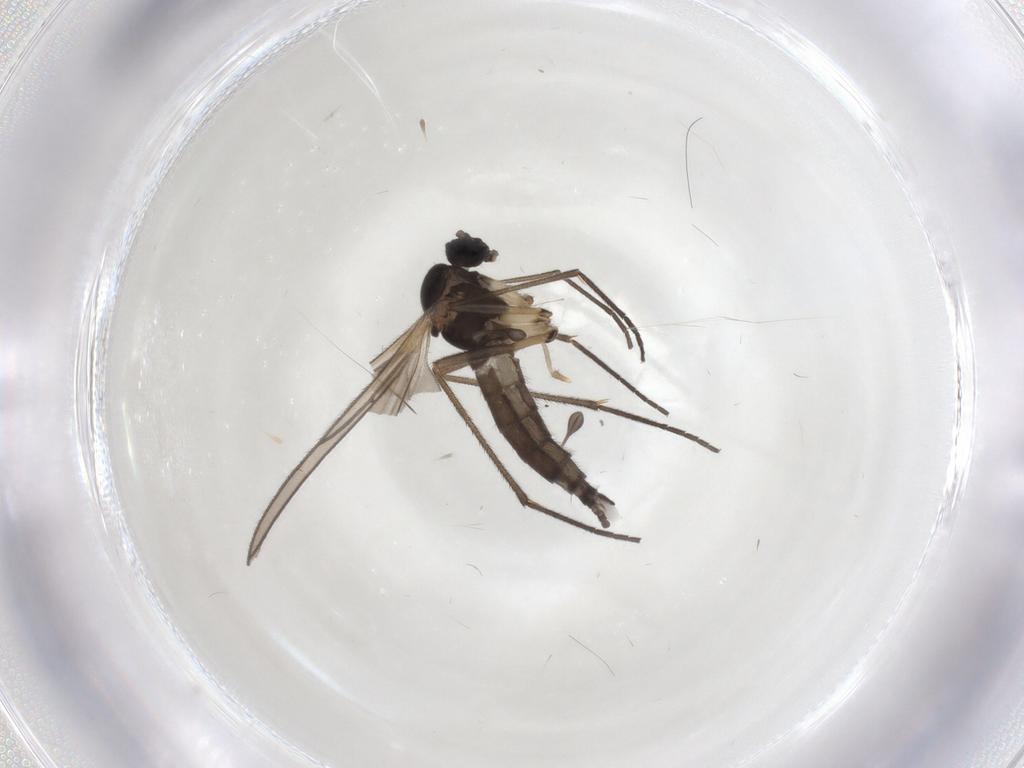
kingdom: Animalia
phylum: Arthropoda
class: Insecta
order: Diptera
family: Sciaridae
